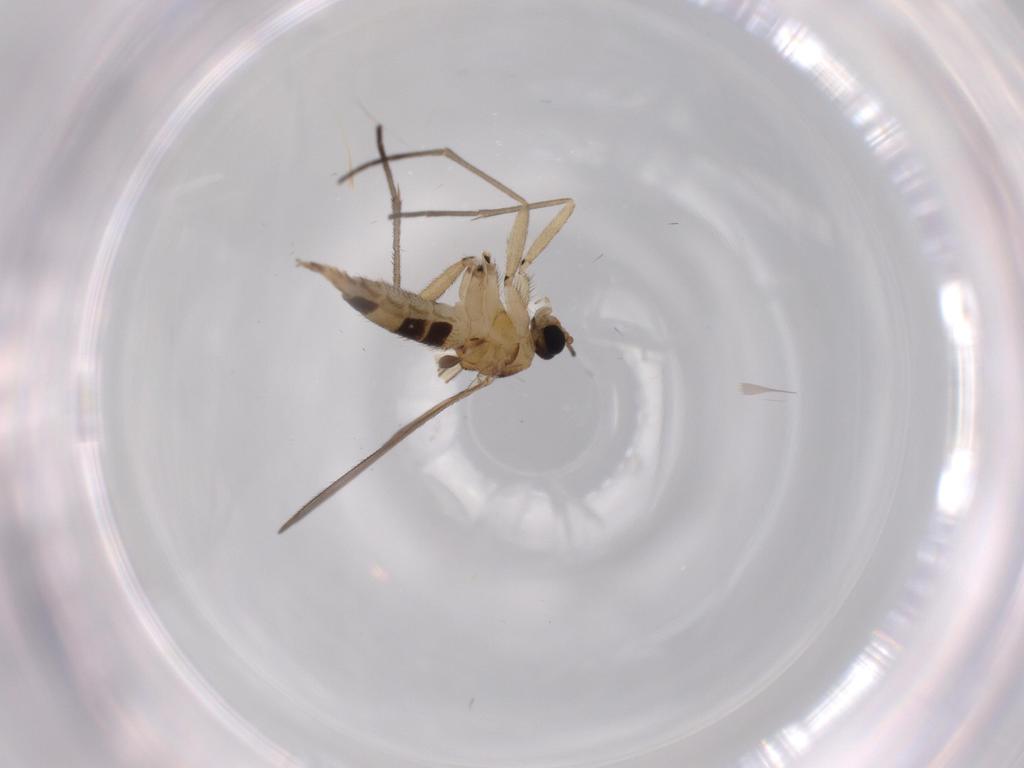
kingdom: Animalia
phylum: Arthropoda
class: Insecta
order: Diptera
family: Sciaridae
